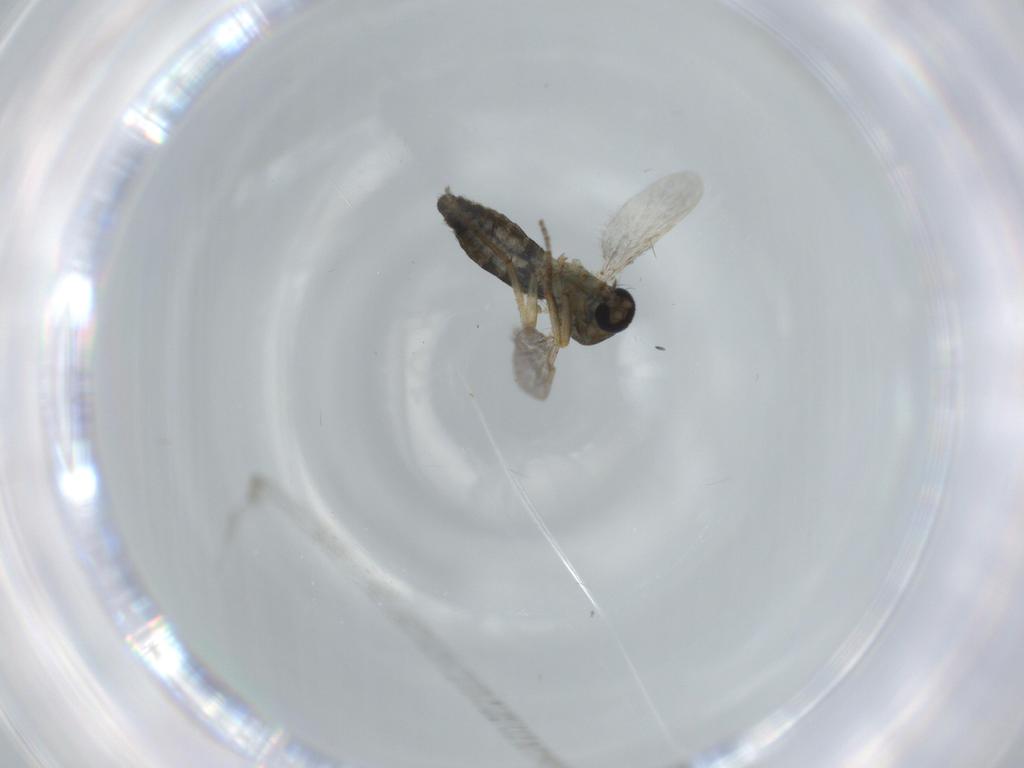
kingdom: Animalia
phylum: Arthropoda
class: Insecta
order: Diptera
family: Ceratopogonidae
